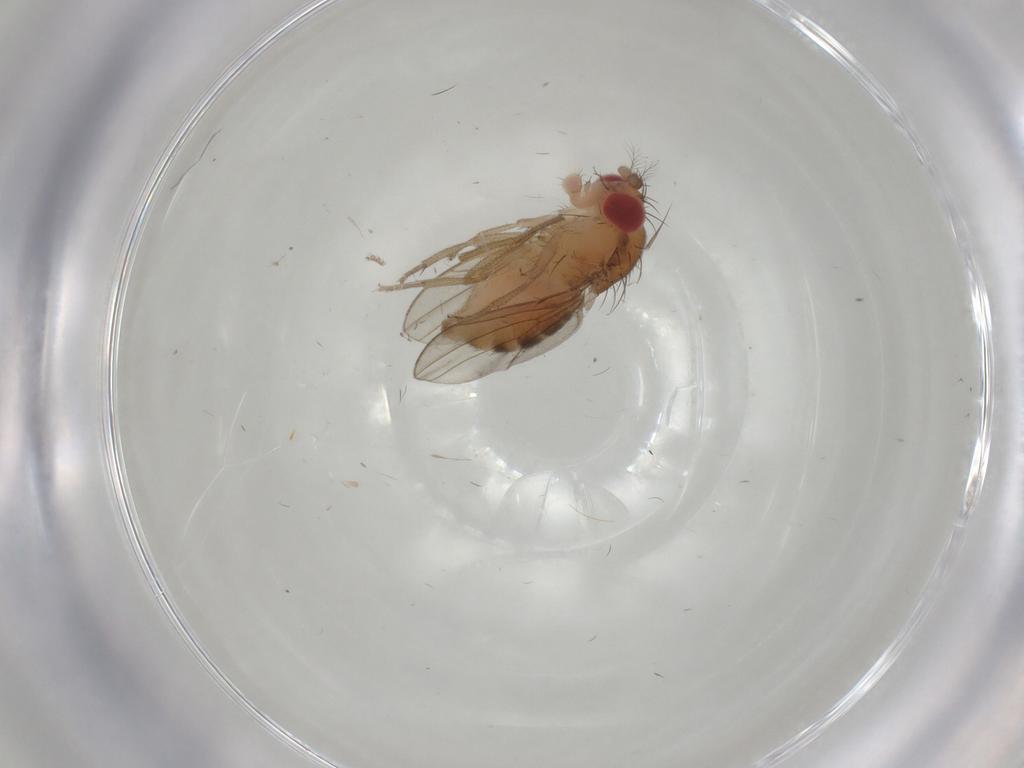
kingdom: Animalia
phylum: Arthropoda
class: Insecta
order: Diptera
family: Drosophilidae
